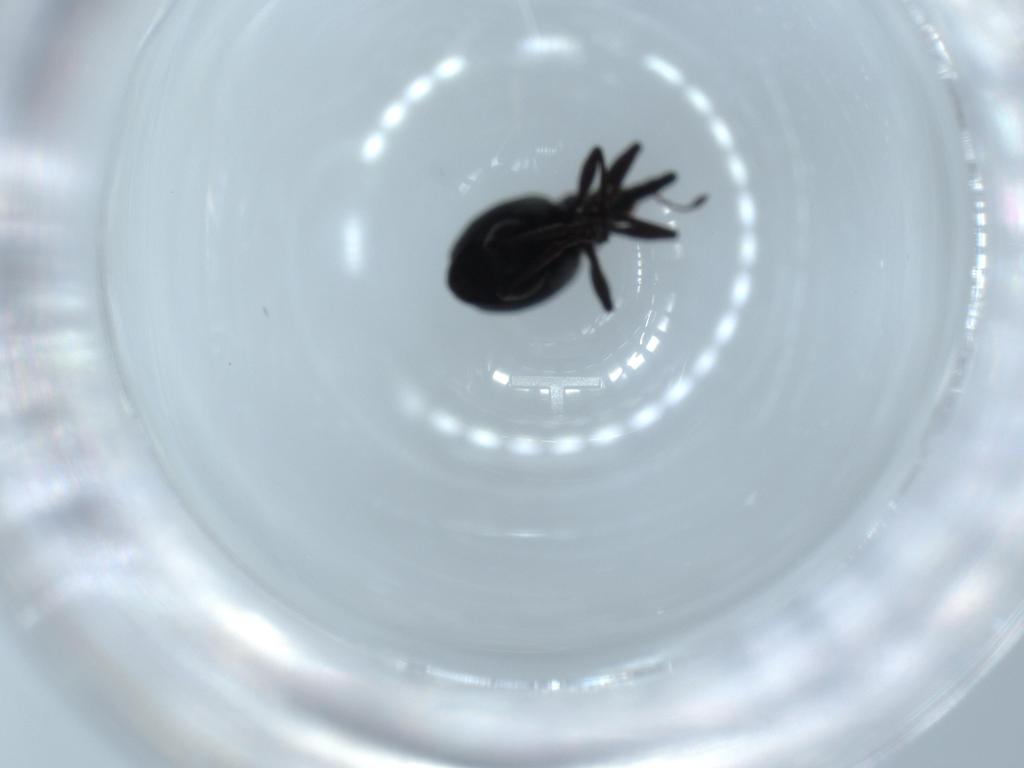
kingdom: Animalia
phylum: Arthropoda
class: Insecta
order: Coleoptera
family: Brentidae
